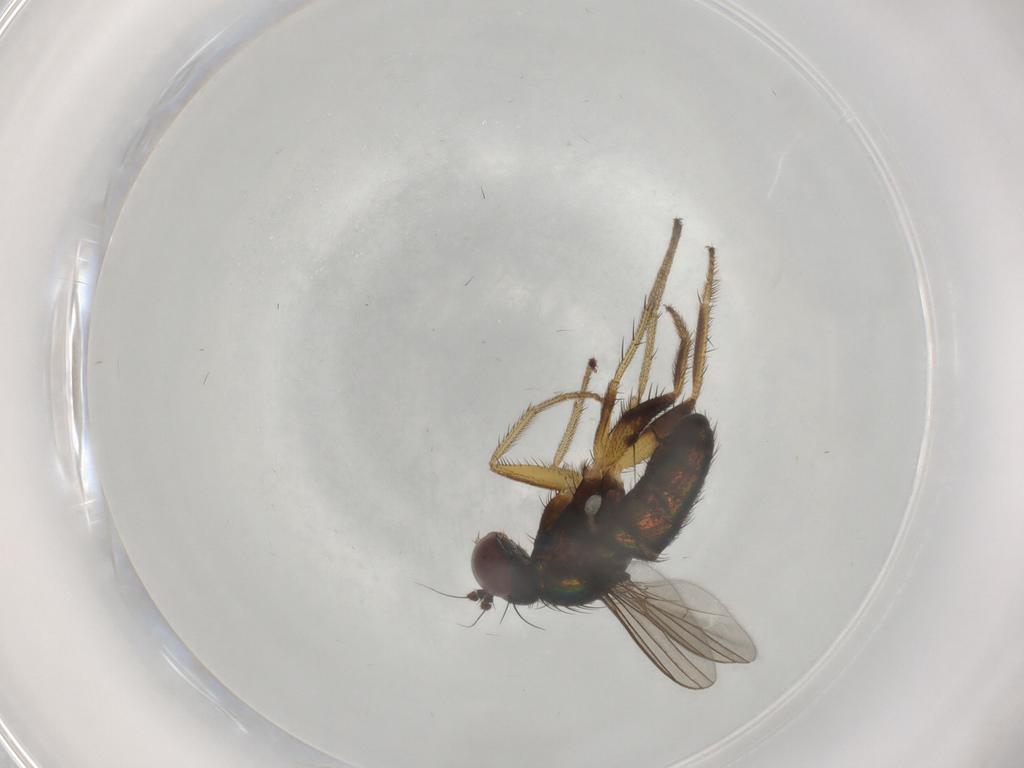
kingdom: Animalia
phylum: Arthropoda
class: Insecta
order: Diptera
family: Dolichopodidae
